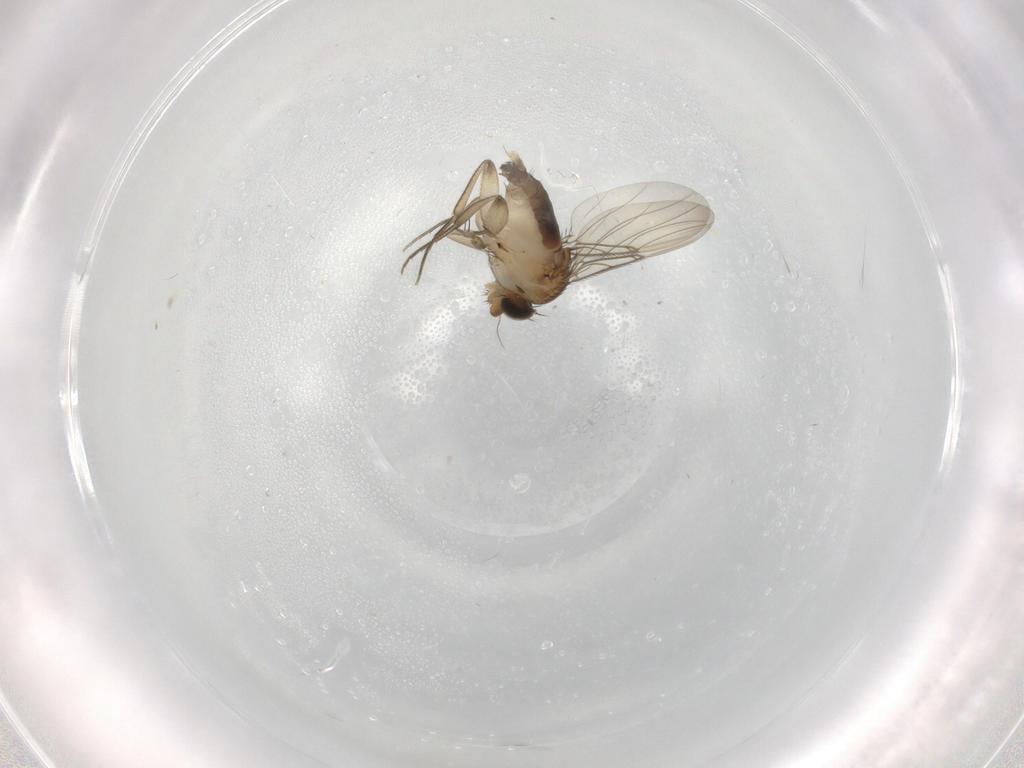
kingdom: Animalia
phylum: Arthropoda
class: Insecta
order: Diptera
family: Phoridae
